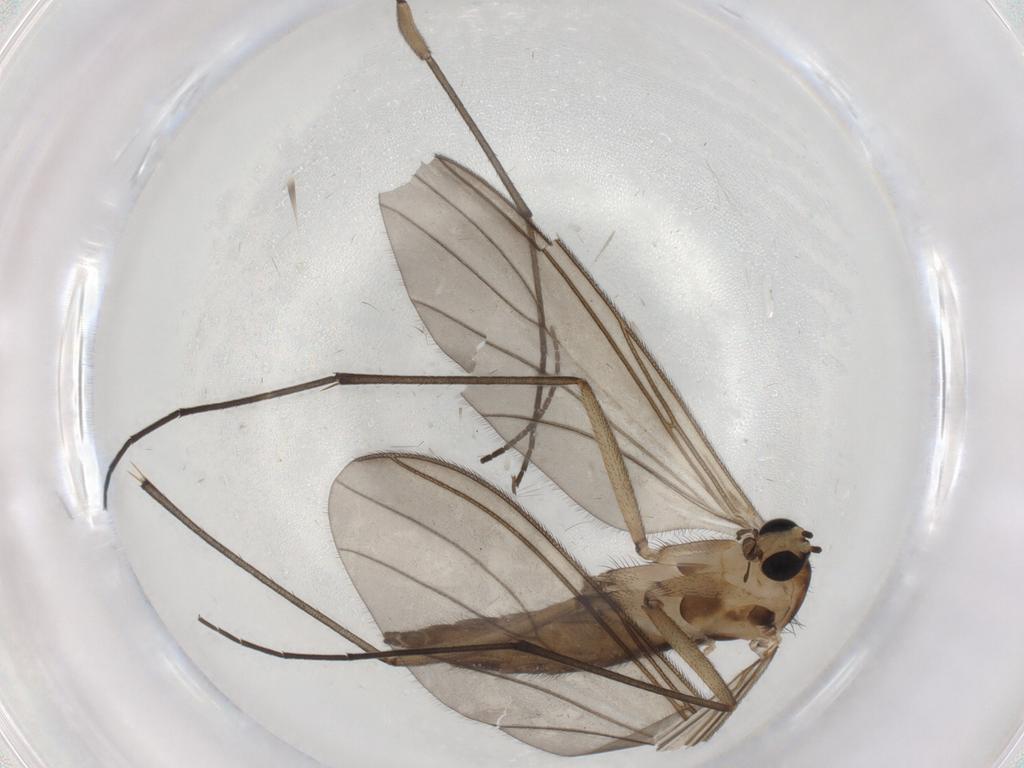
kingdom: Animalia
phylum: Arthropoda
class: Insecta
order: Diptera
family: Sciaridae
